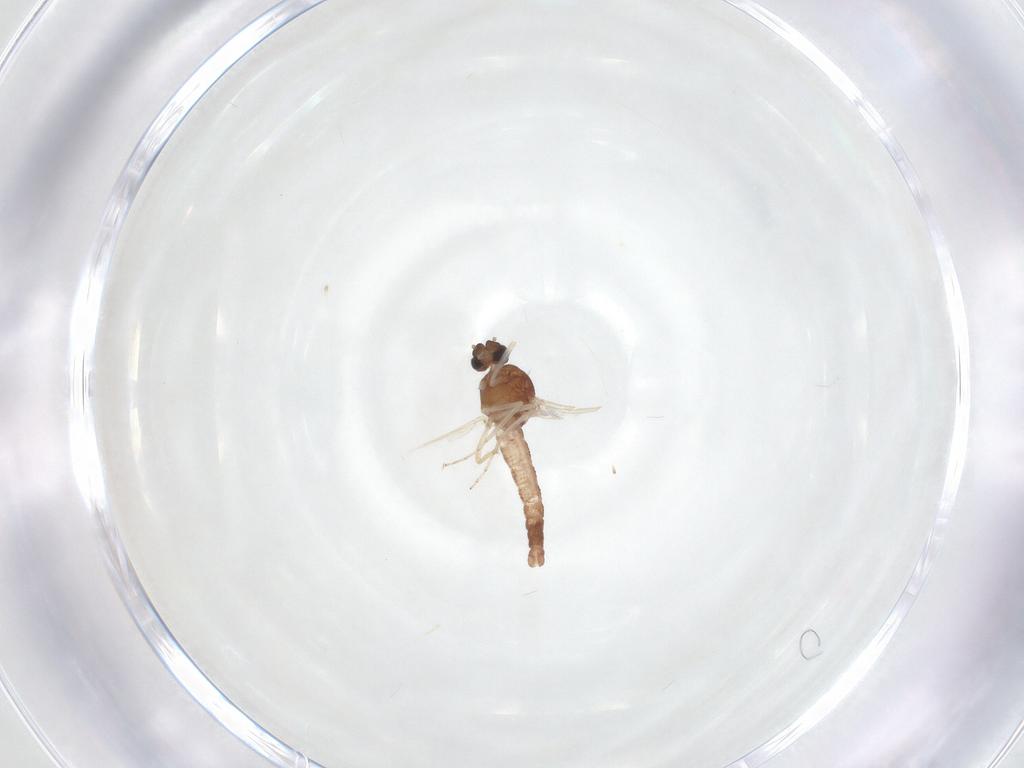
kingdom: Animalia
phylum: Arthropoda
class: Insecta
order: Diptera
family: Ceratopogonidae
